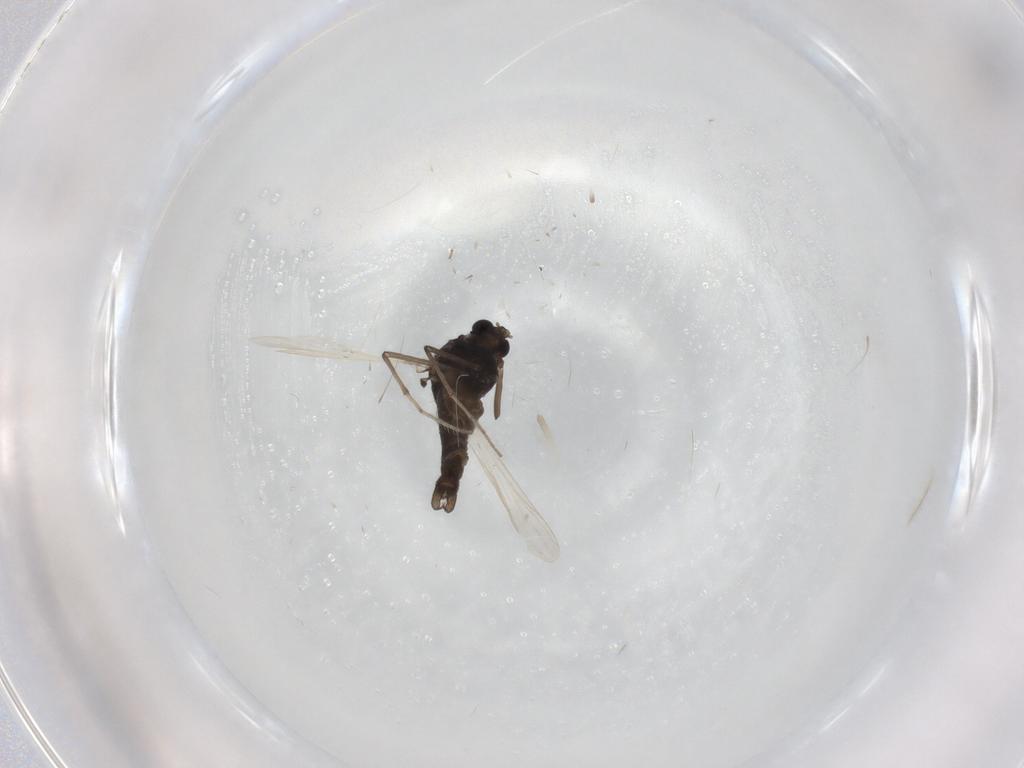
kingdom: Animalia
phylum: Arthropoda
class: Insecta
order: Diptera
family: Chironomidae
